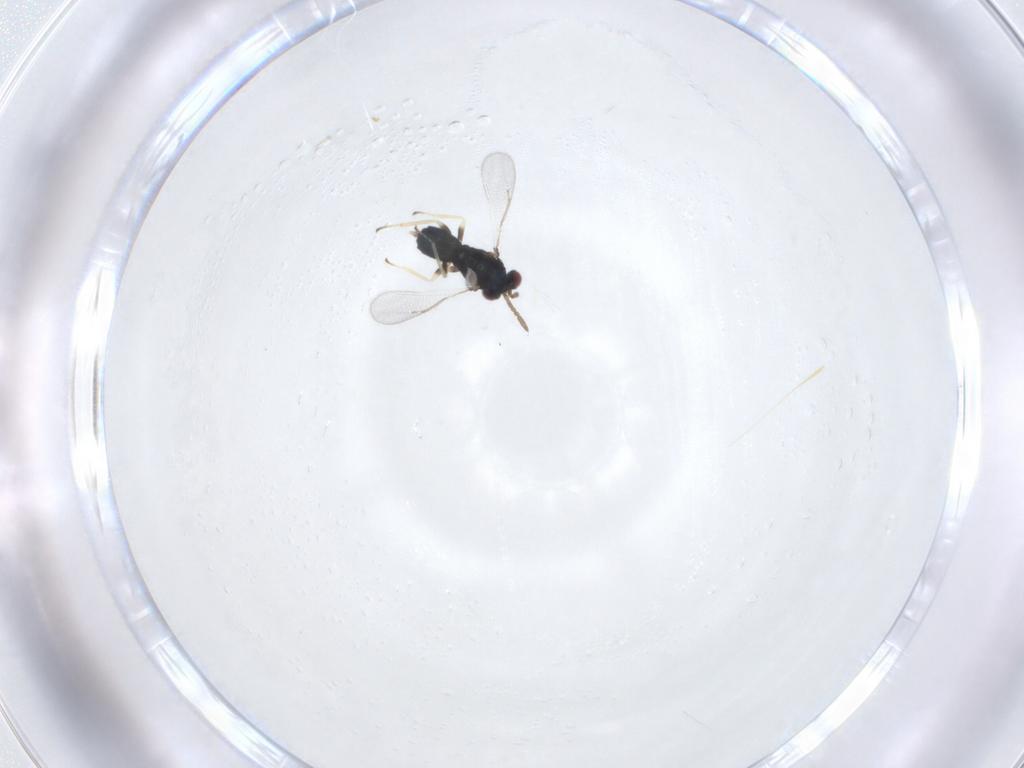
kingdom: Animalia
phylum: Arthropoda
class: Insecta
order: Hymenoptera
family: Eulophidae
